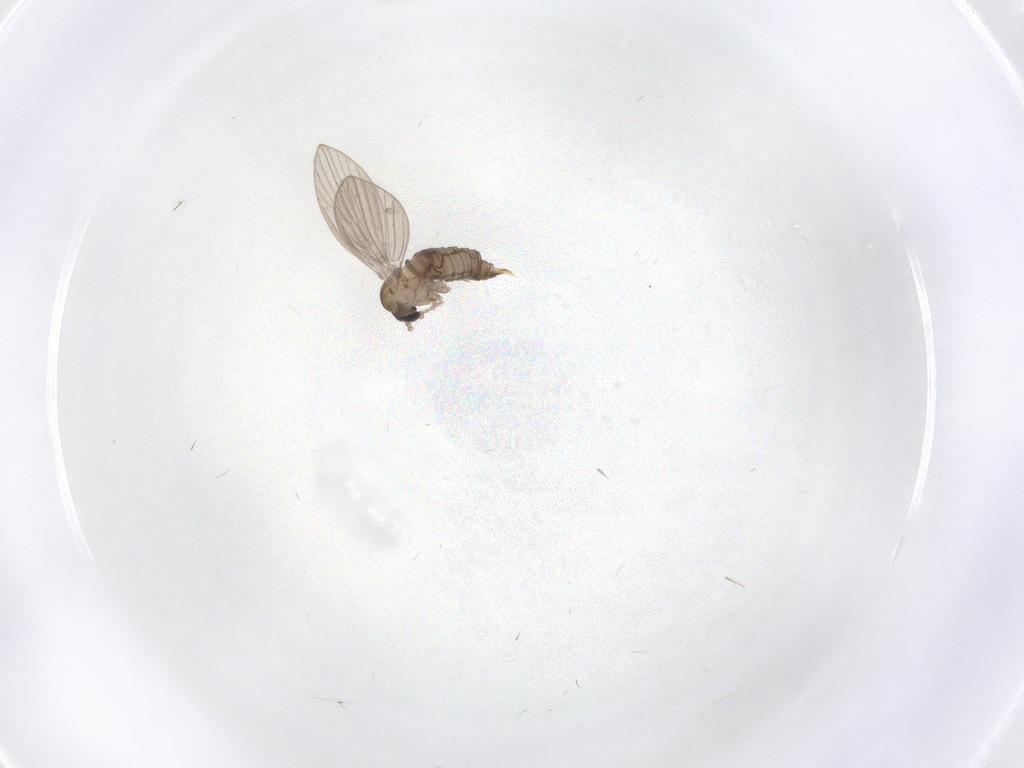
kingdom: Animalia
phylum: Arthropoda
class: Insecta
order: Diptera
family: Psychodidae
